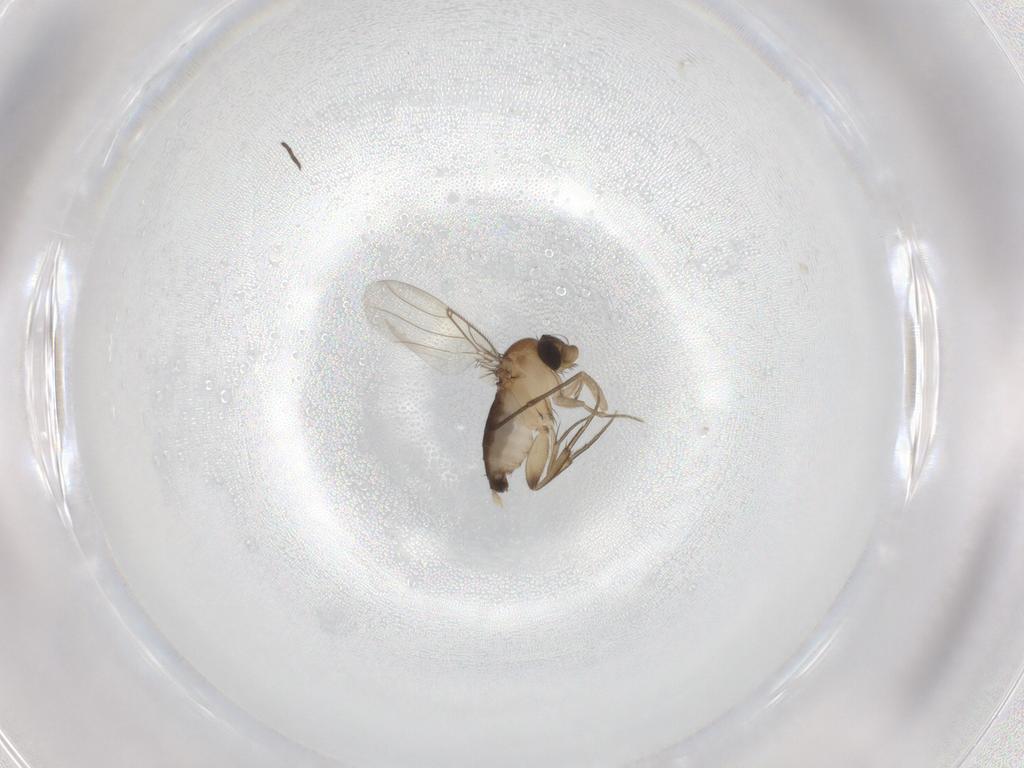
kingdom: Animalia
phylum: Arthropoda
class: Insecta
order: Diptera
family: Sciaridae
